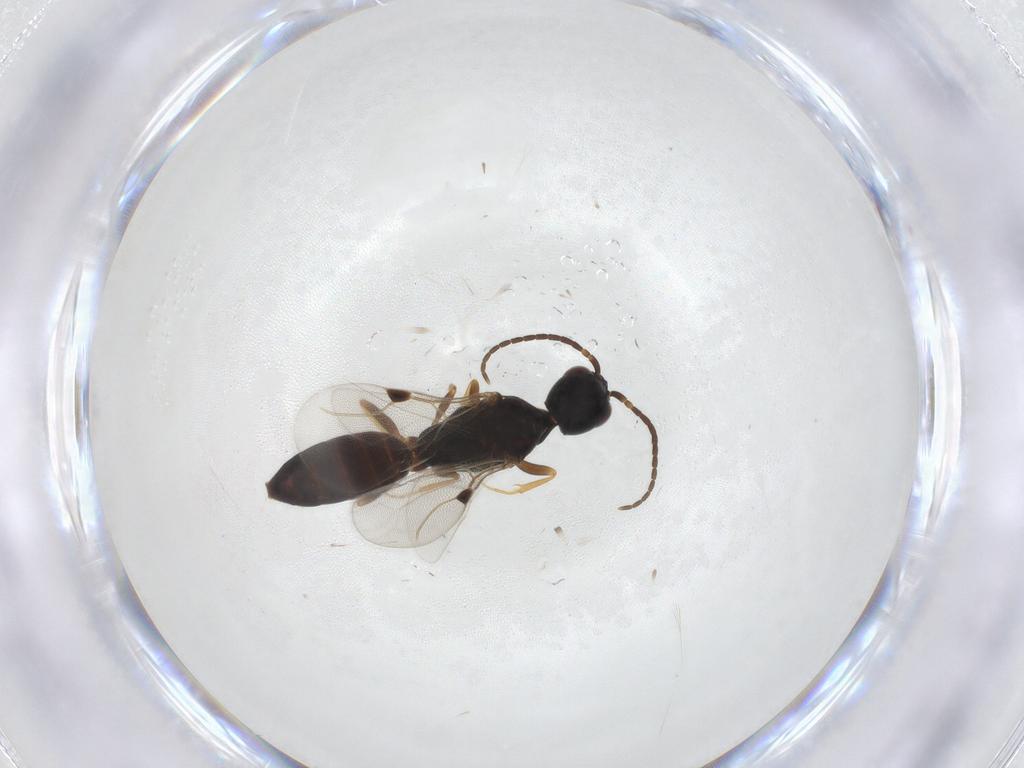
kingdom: Animalia
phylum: Arthropoda
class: Insecta
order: Hymenoptera
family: Bethylidae
